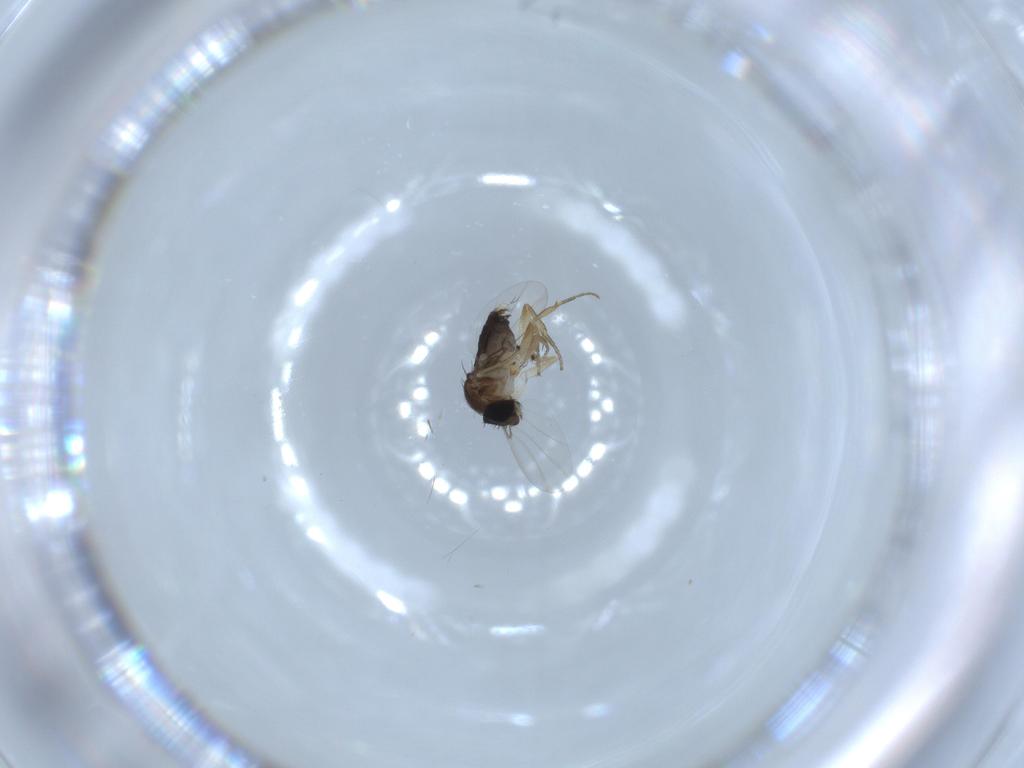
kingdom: Animalia
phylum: Arthropoda
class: Insecta
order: Diptera
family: Phoridae
